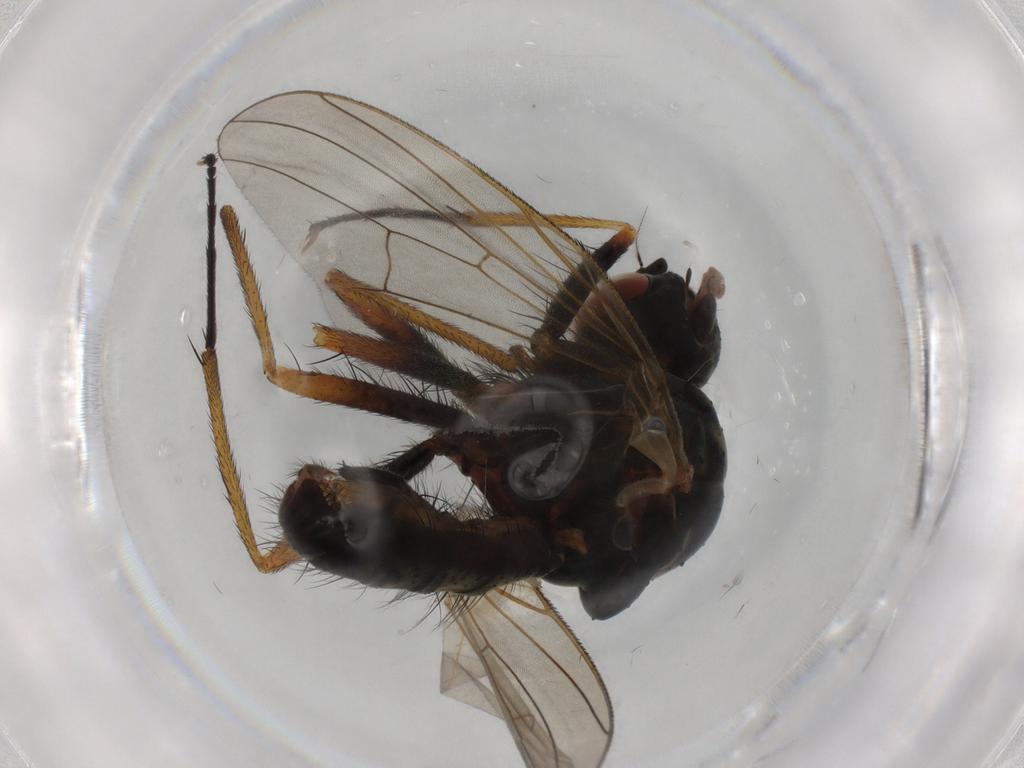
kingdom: Animalia
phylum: Arthropoda
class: Insecta
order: Diptera
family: Anthomyiidae
